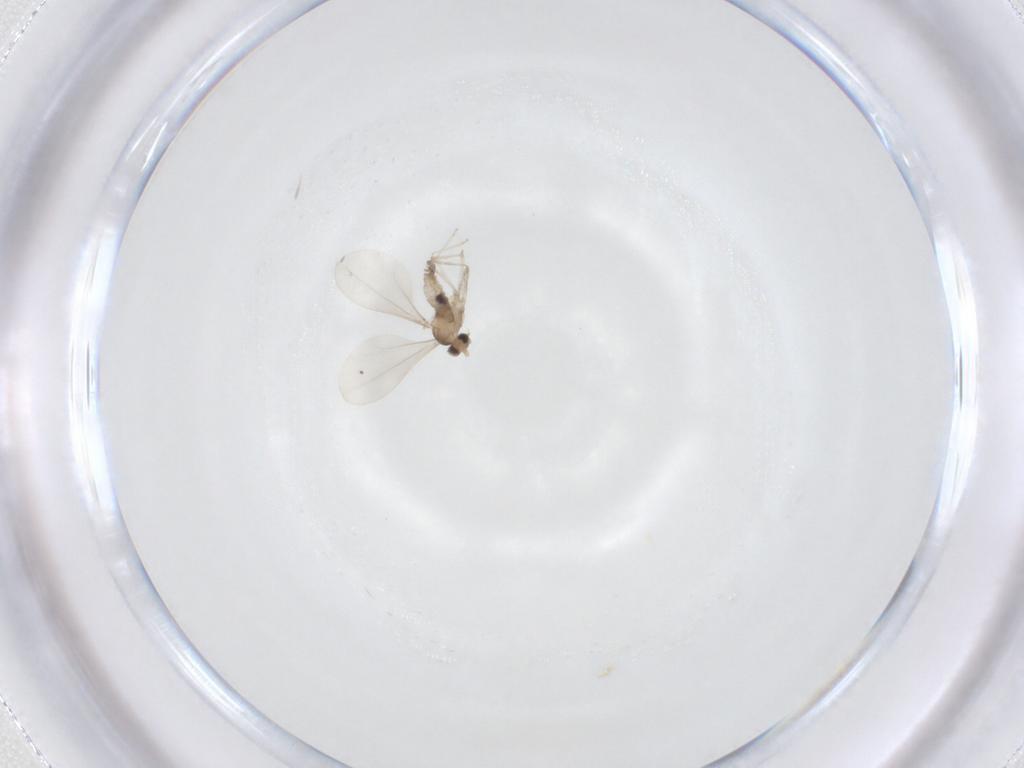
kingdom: Animalia
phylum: Arthropoda
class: Insecta
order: Diptera
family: Cecidomyiidae
